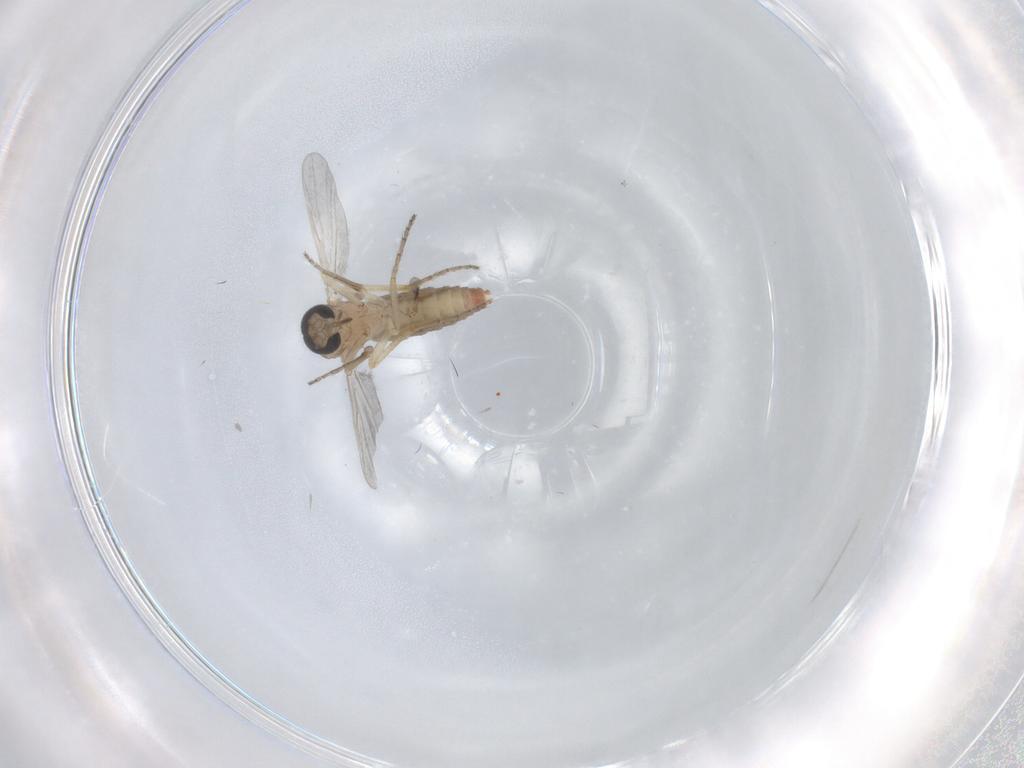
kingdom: Animalia
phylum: Arthropoda
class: Insecta
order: Diptera
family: Ceratopogonidae
